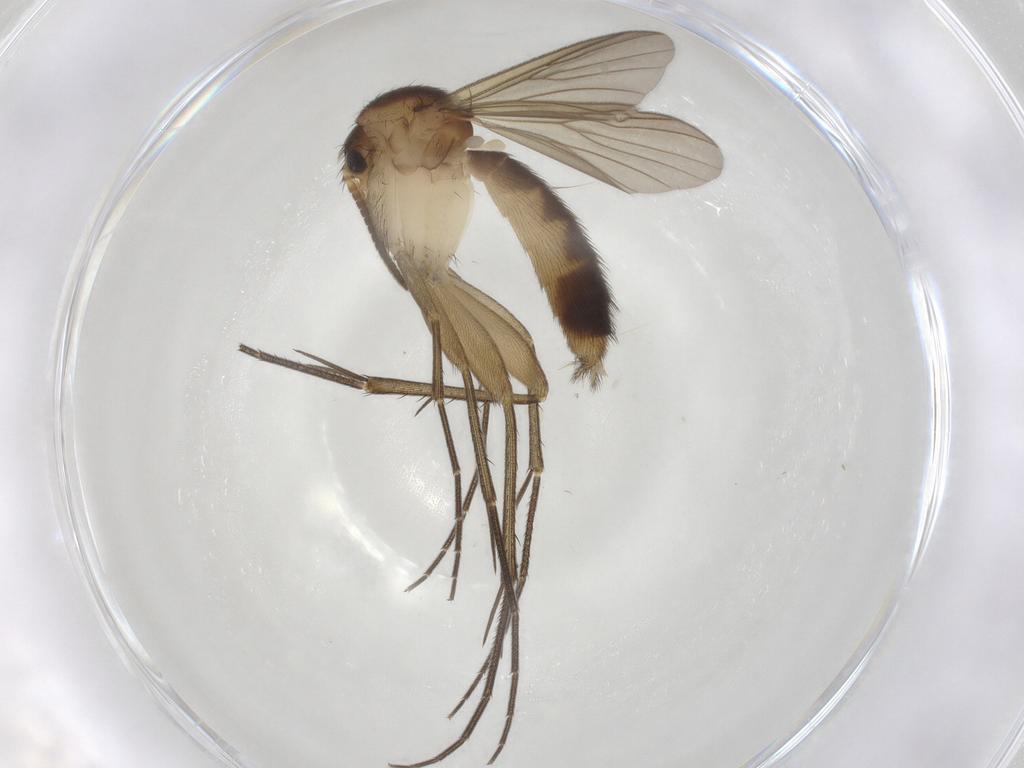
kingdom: Animalia
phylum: Arthropoda
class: Insecta
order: Diptera
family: Mycetophilidae
